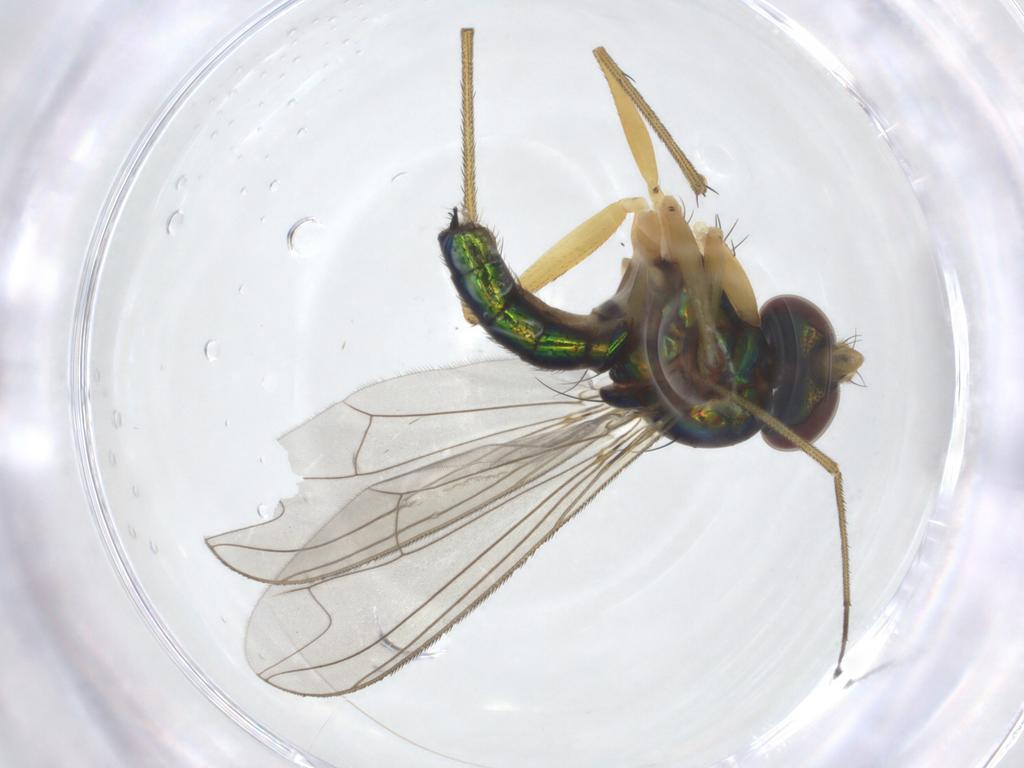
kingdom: Animalia
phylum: Arthropoda
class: Insecta
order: Diptera
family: Dolichopodidae
